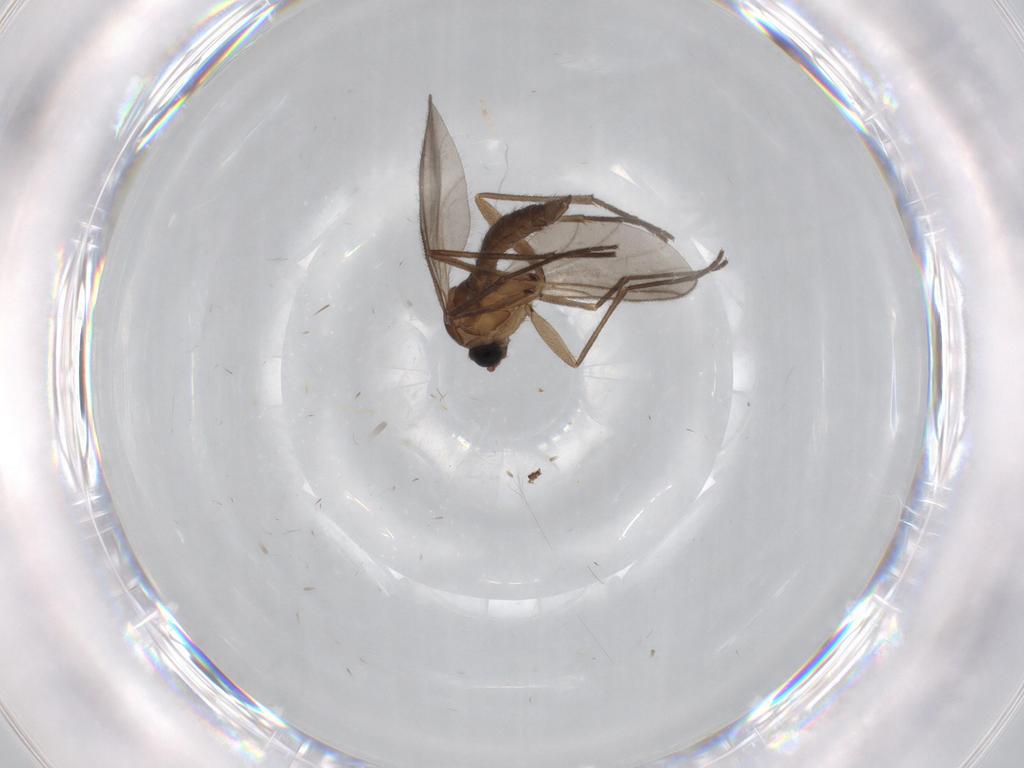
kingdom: Animalia
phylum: Arthropoda
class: Insecta
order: Diptera
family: Sciaridae
